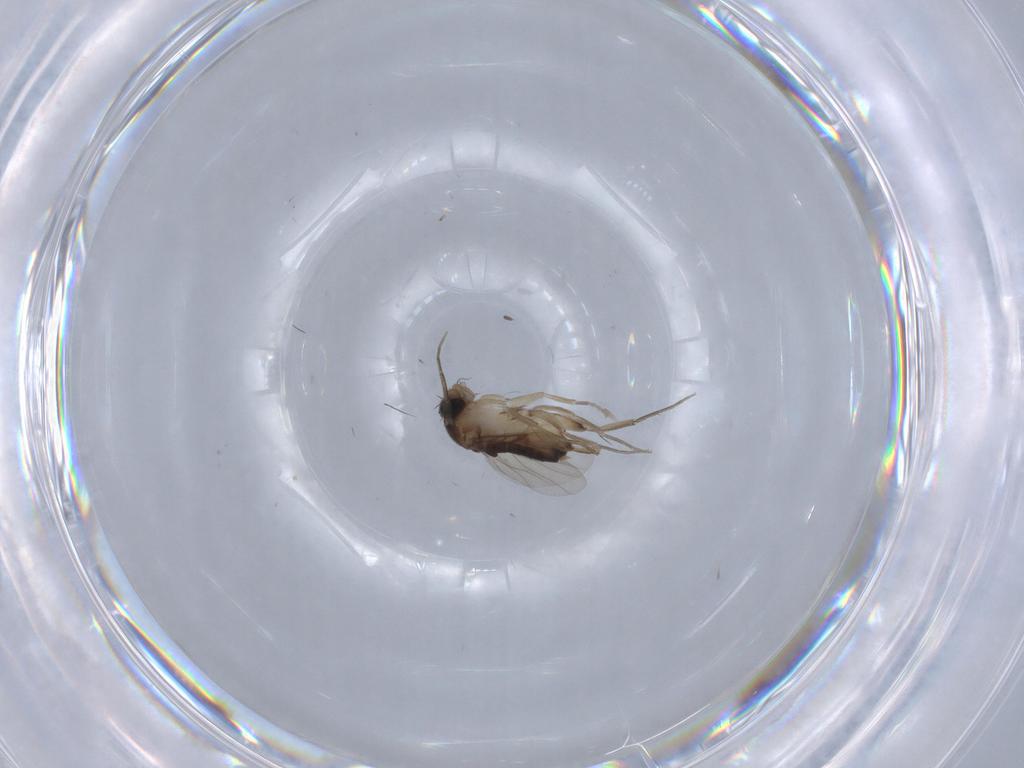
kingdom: Animalia
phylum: Arthropoda
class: Insecta
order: Diptera
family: Phoridae
